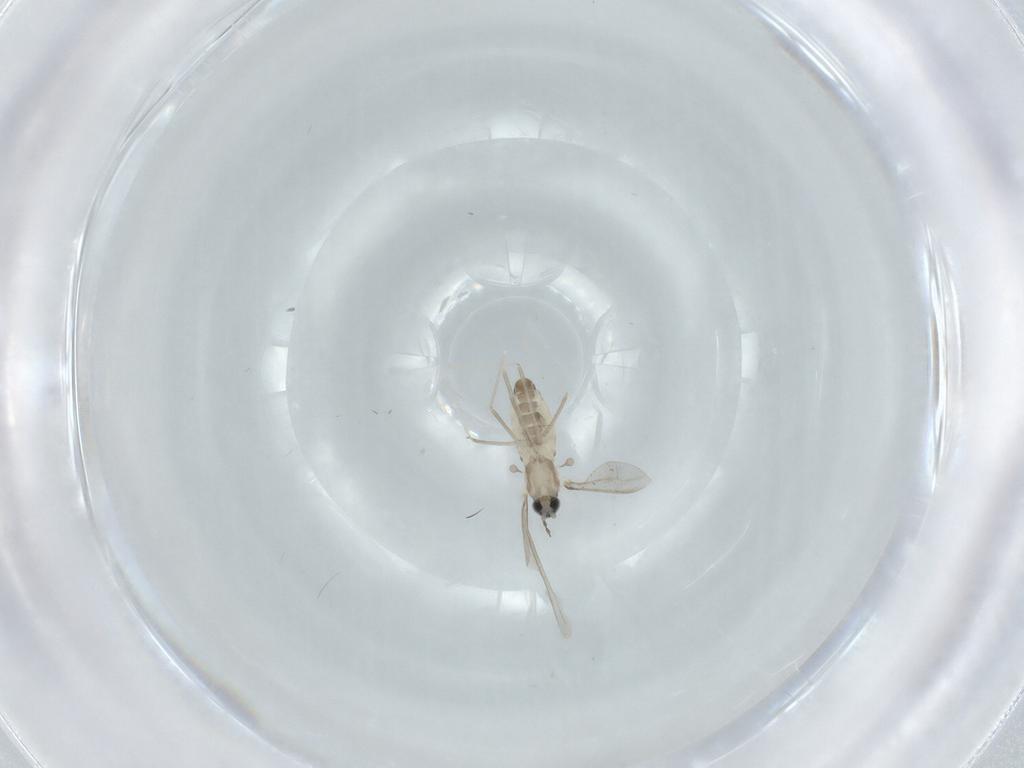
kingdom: Animalia
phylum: Arthropoda
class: Insecta
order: Diptera
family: Cecidomyiidae
